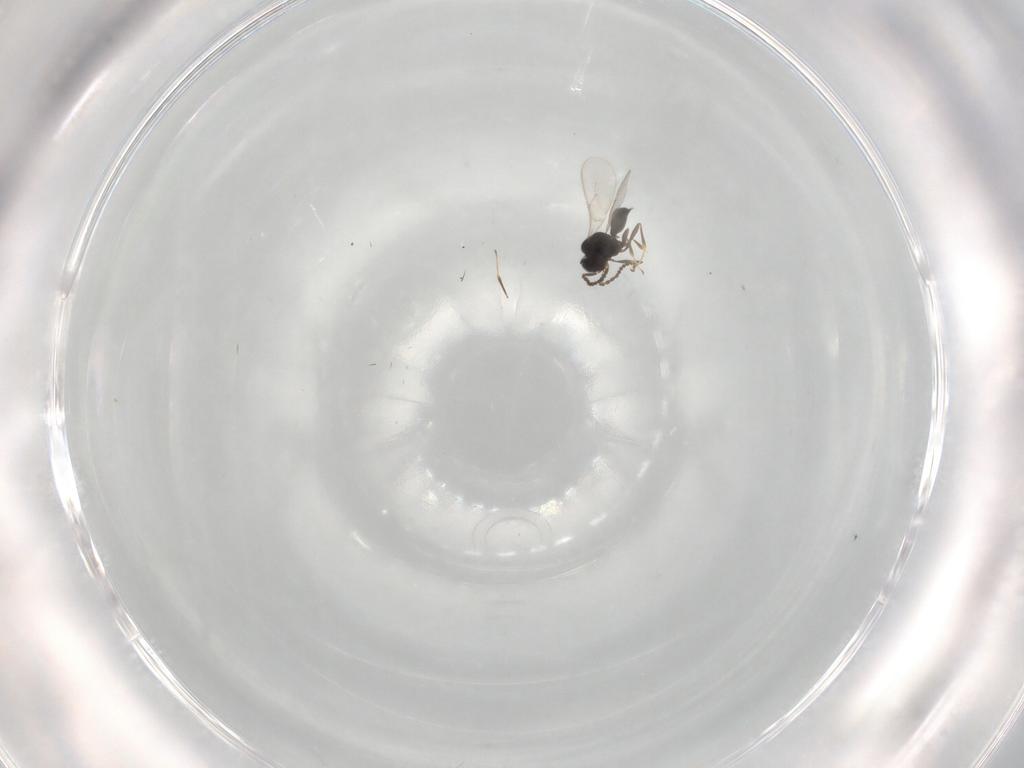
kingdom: Animalia
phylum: Arthropoda
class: Insecta
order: Hymenoptera
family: Scelionidae
